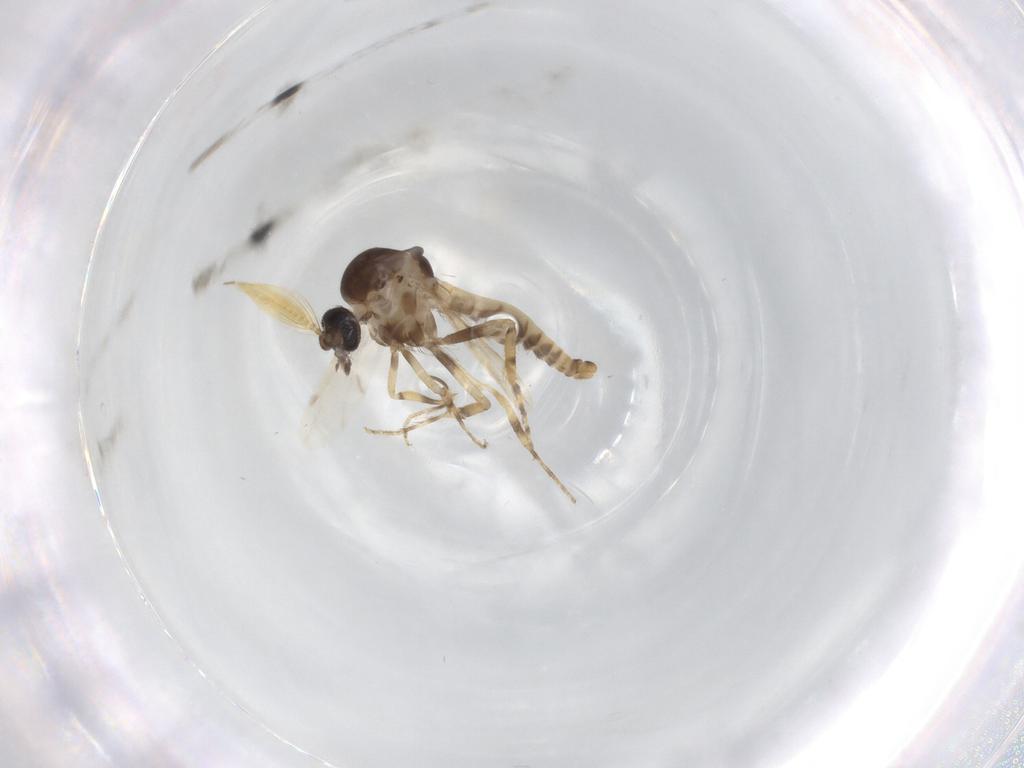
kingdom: Animalia
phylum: Arthropoda
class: Insecta
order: Diptera
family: Ceratopogonidae
